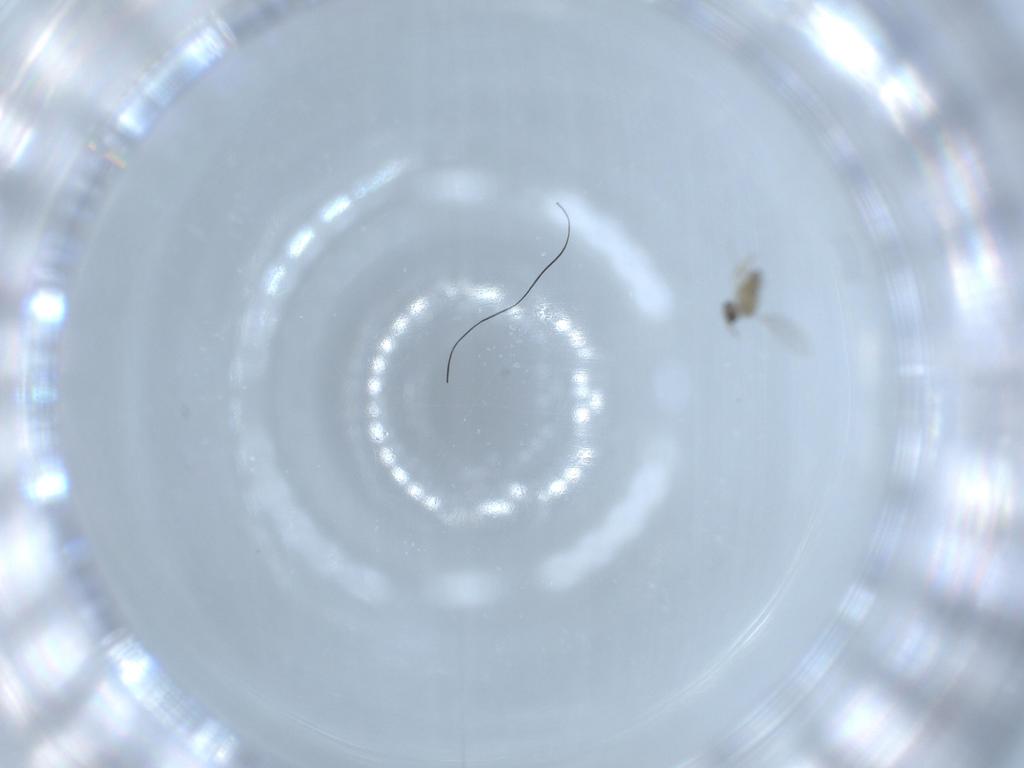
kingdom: Animalia
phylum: Arthropoda
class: Insecta
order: Diptera
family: Cecidomyiidae
